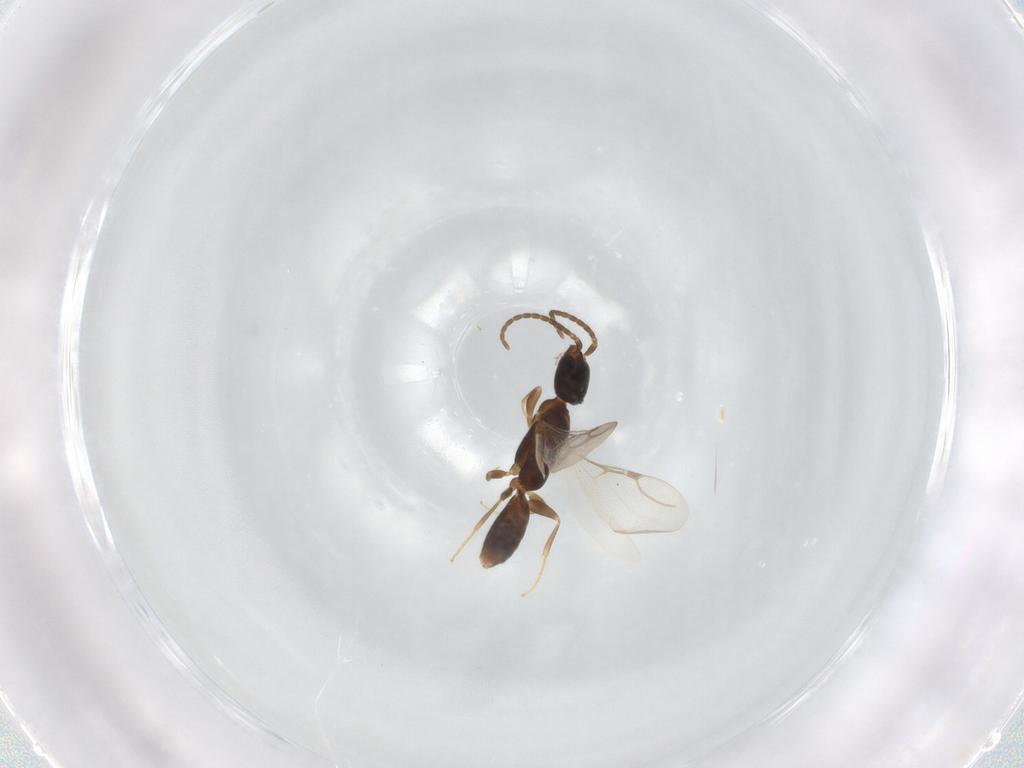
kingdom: Animalia
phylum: Arthropoda
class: Insecta
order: Hymenoptera
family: Bethylidae
